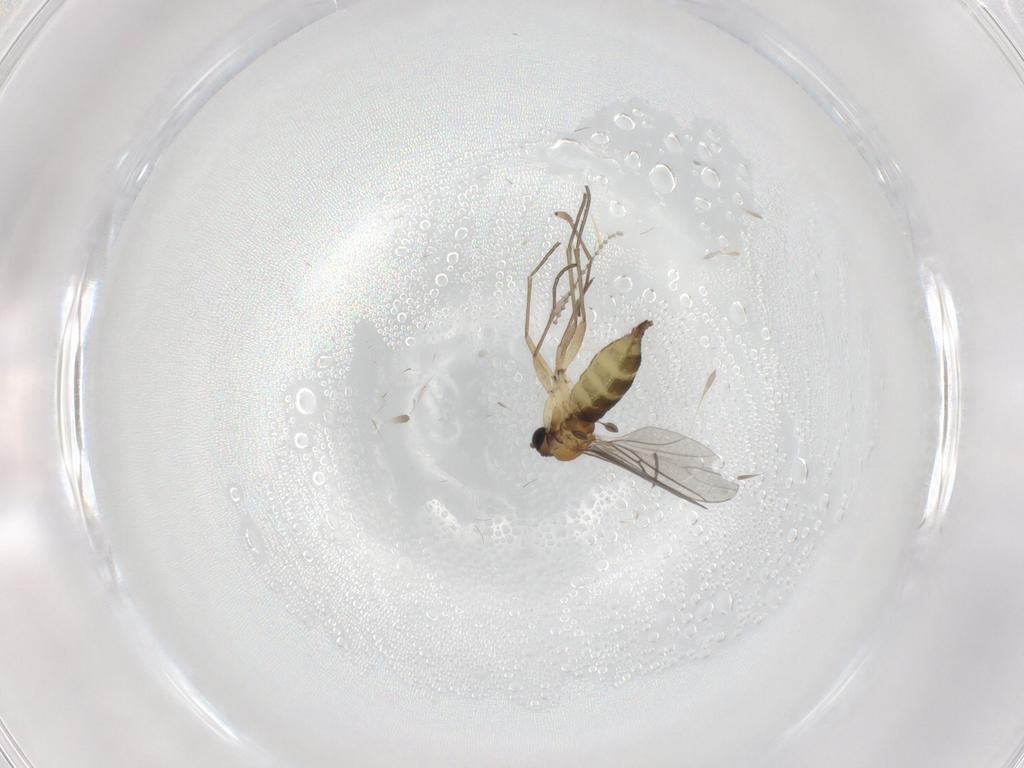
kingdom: Animalia
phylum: Arthropoda
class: Insecta
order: Diptera
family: Sciaridae
